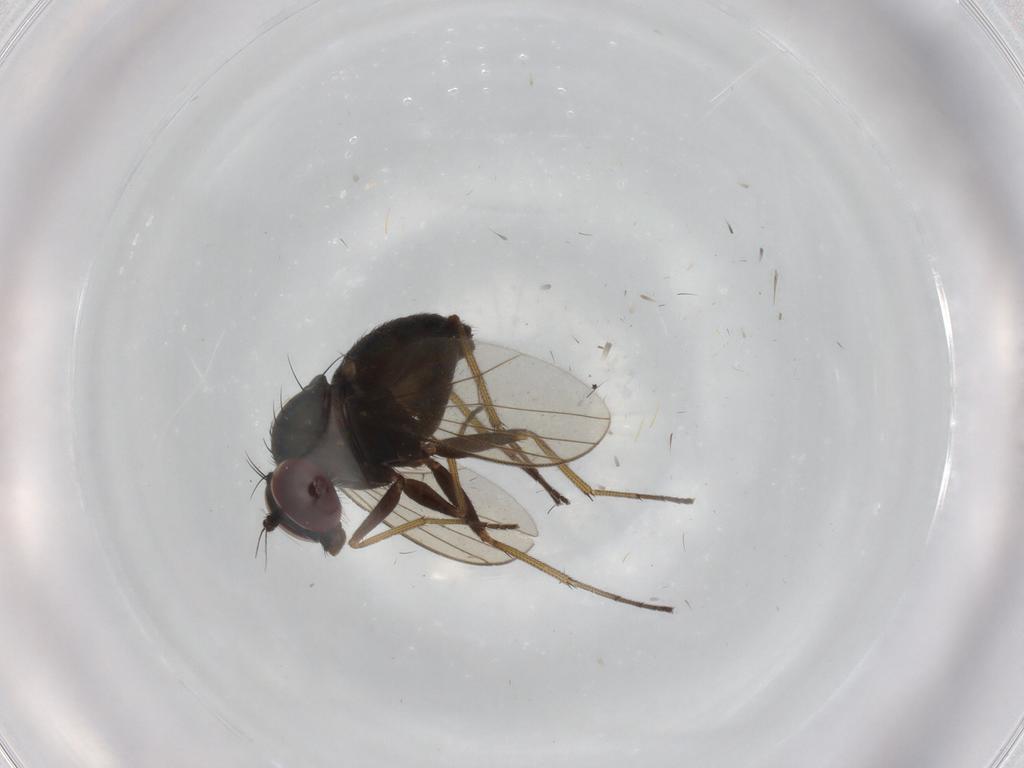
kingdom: Animalia
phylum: Arthropoda
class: Insecta
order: Diptera
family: Dolichopodidae
